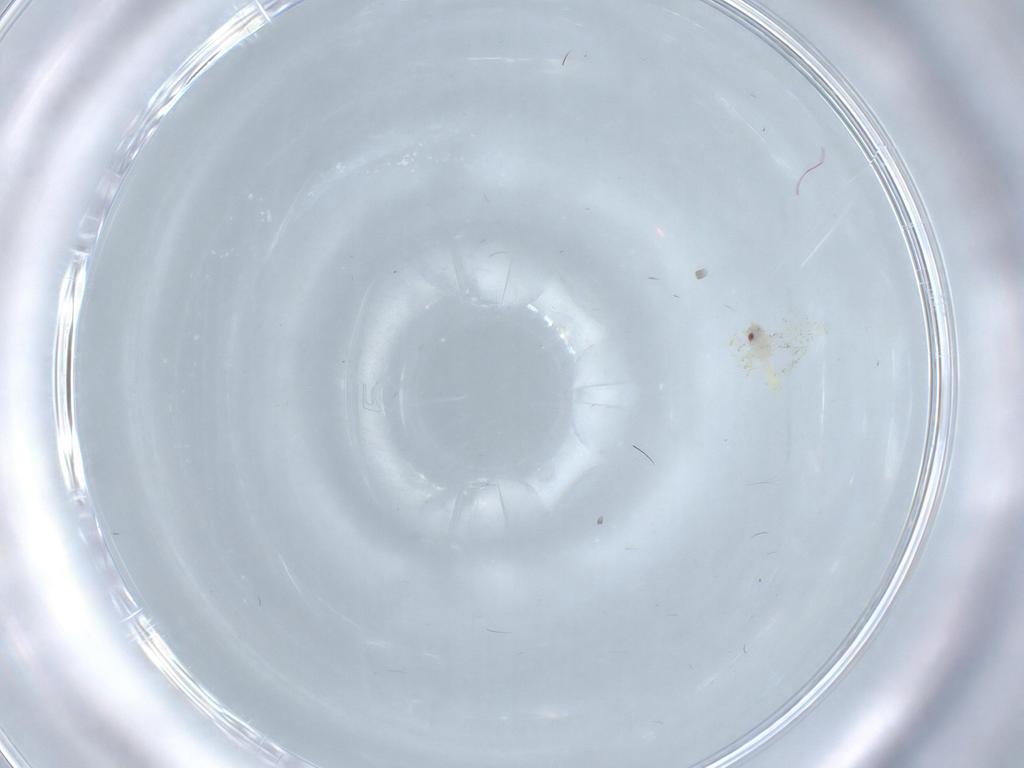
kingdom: Animalia
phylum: Arthropoda
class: Insecta
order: Hemiptera
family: Aleyrodidae
